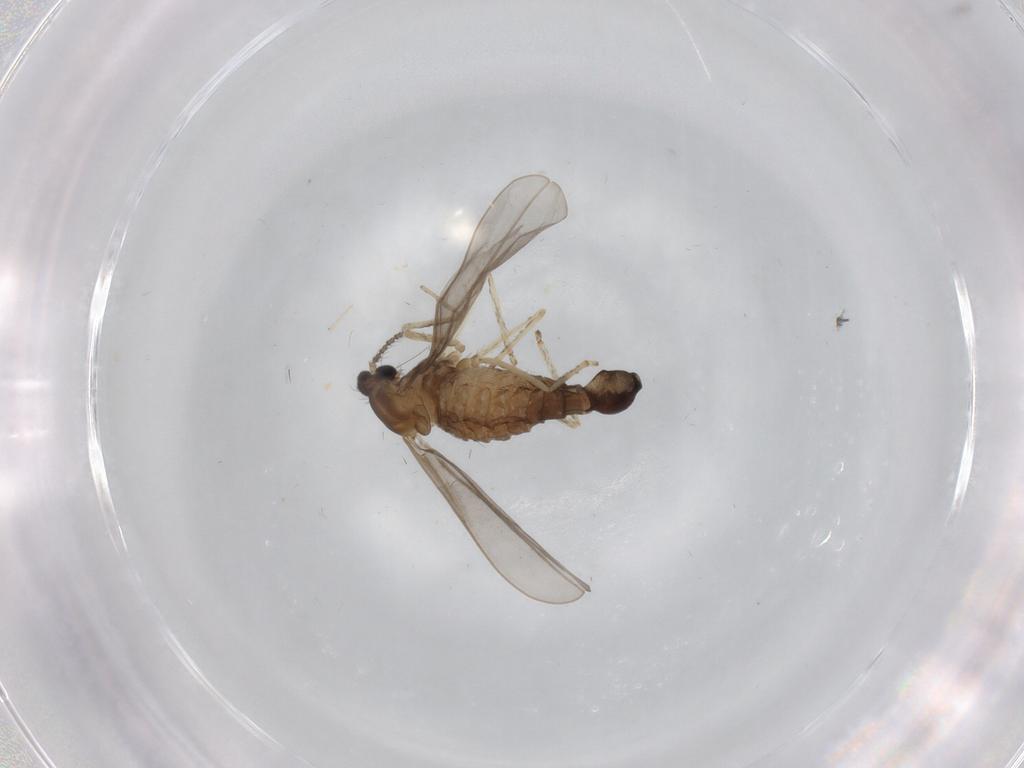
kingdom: Animalia
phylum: Arthropoda
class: Insecta
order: Diptera
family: Cecidomyiidae
